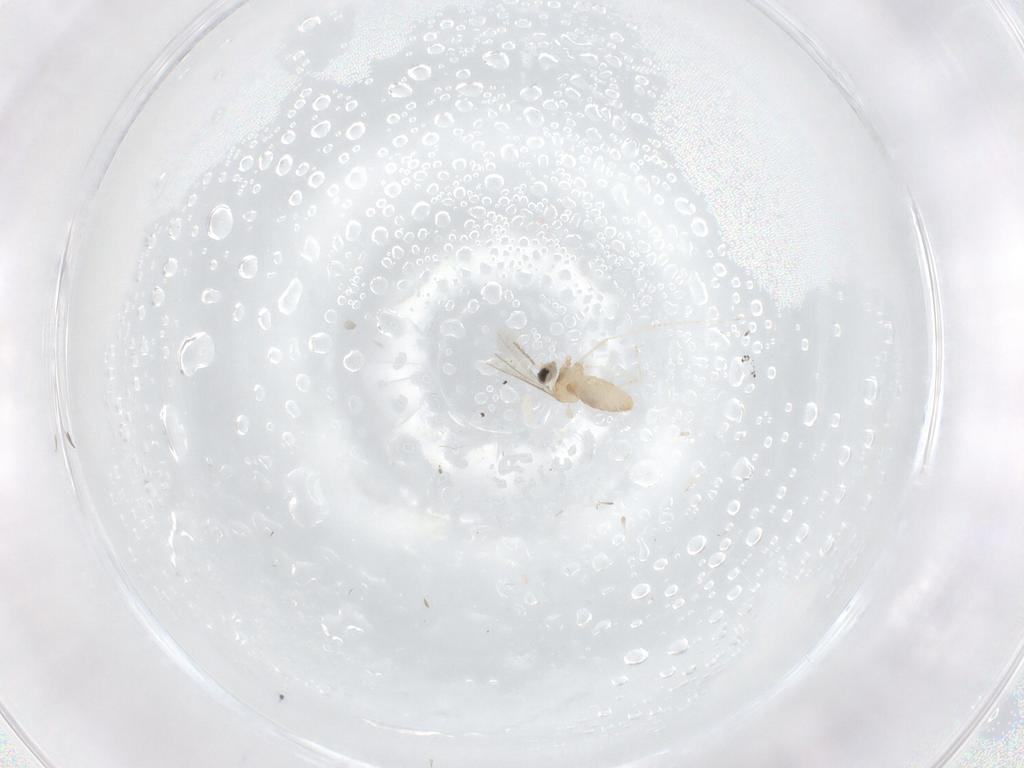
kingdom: Animalia
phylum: Arthropoda
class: Insecta
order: Diptera
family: Cecidomyiidae
